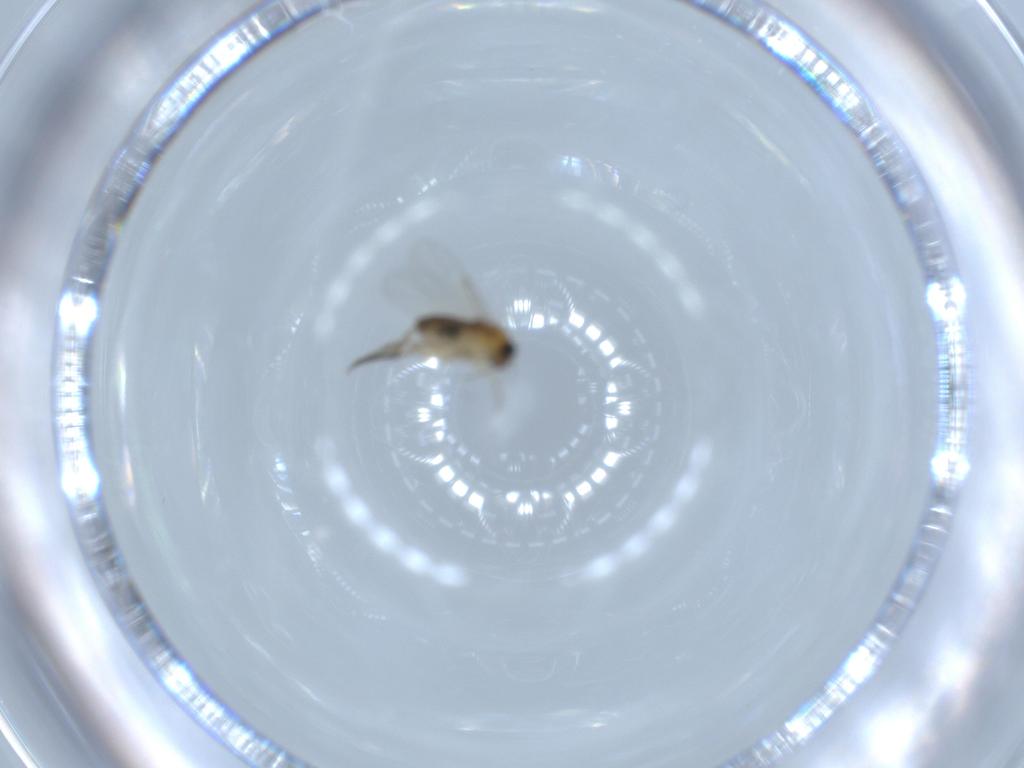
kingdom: Animalia
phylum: Arthropoda
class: Insecta
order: Diptera
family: Phoridae
